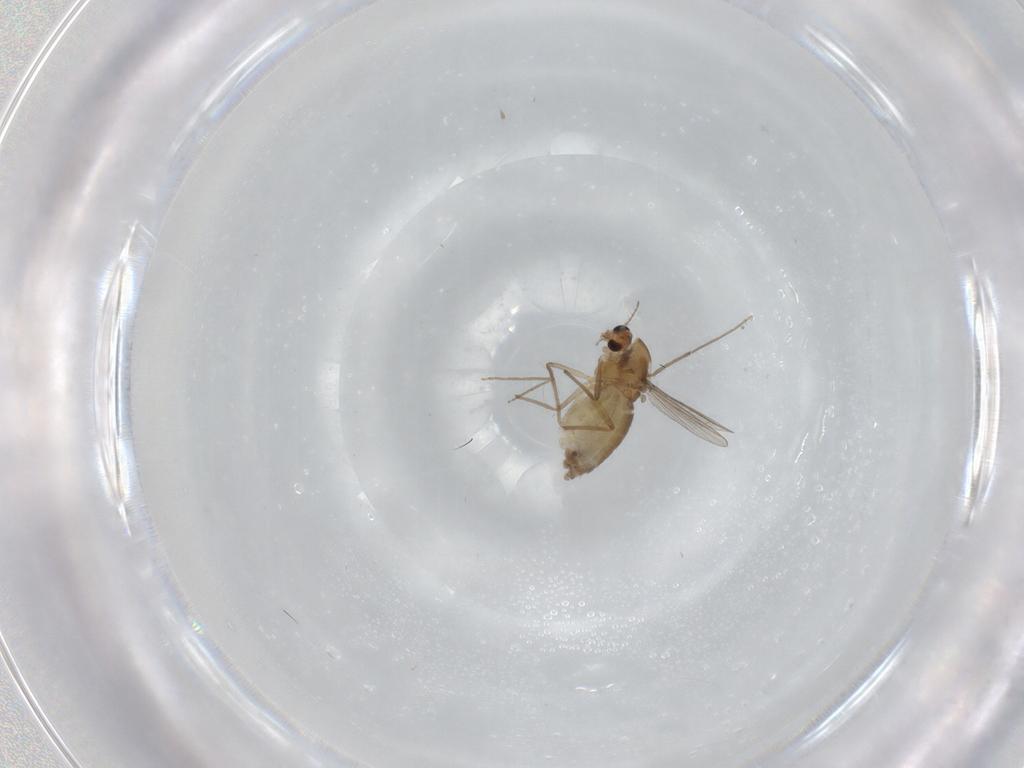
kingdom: Animalia
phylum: Arthropoda
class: Insecta
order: Diptera
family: Chironomidae
